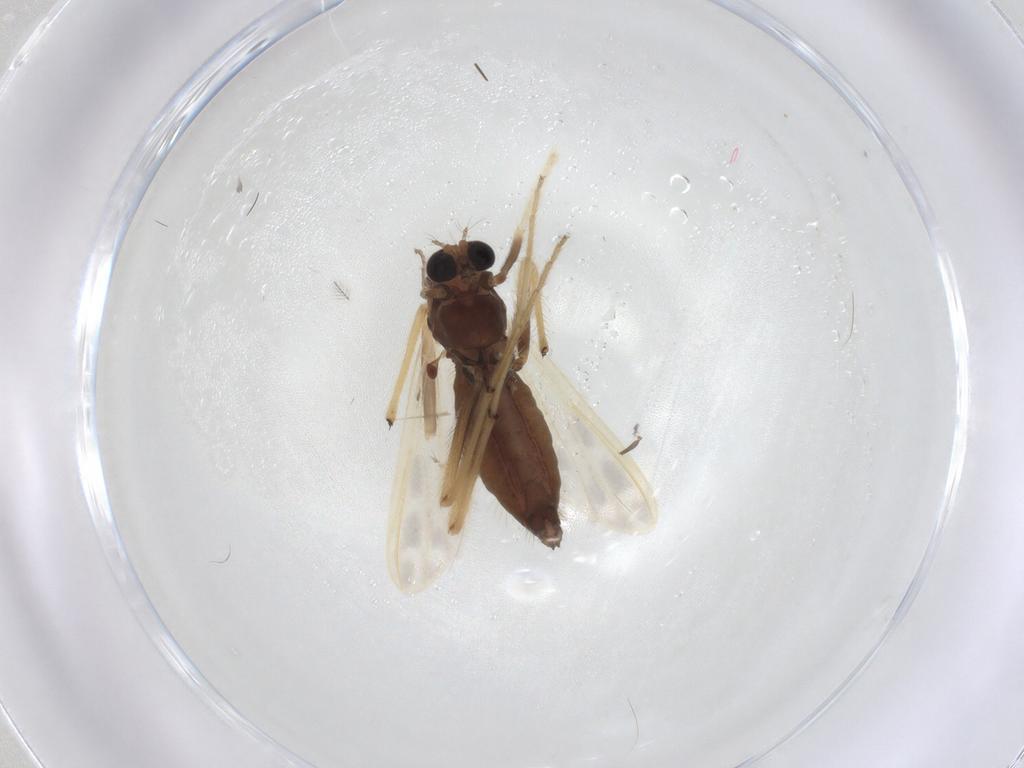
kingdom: Animalia
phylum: Arthropoda
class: Insecta
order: Diptera
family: Chironomidae
